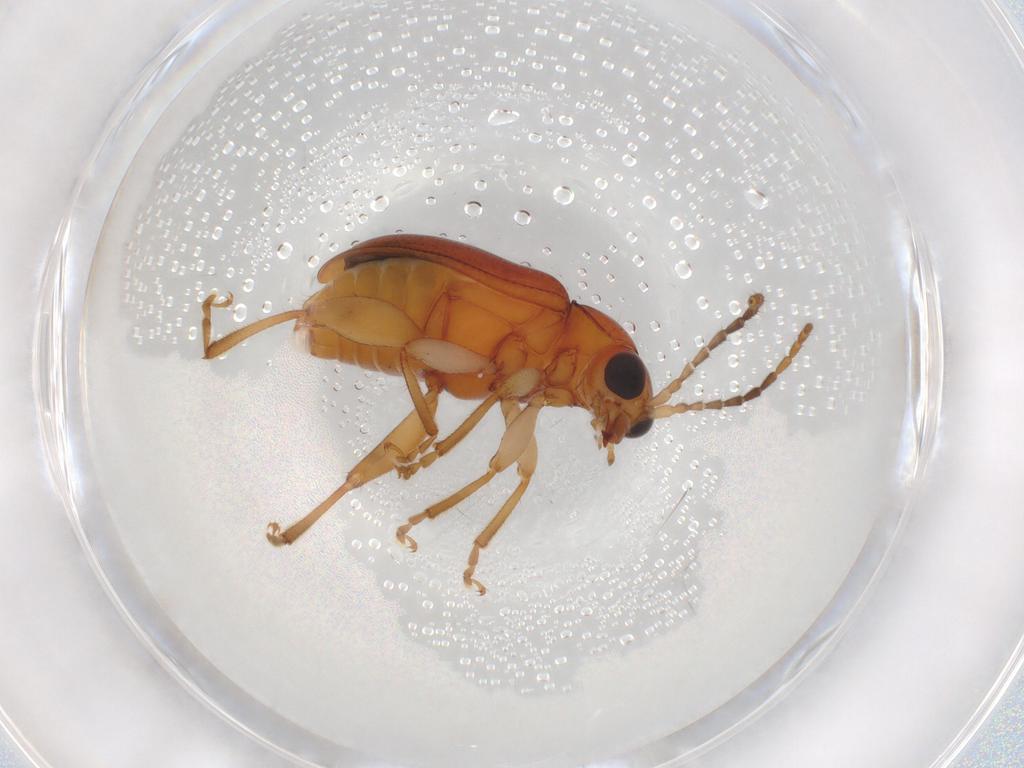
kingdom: Animalia
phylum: Arthropoda
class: Insecta
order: Coleoptera
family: Chrysomelidae
